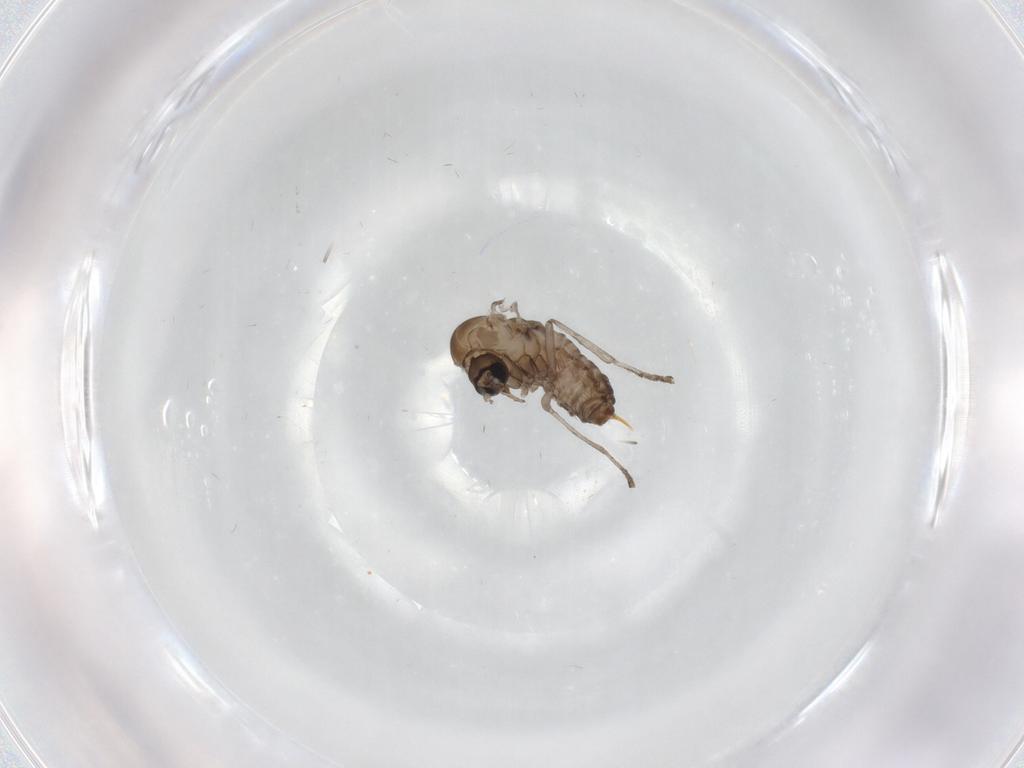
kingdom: Animalia
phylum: Arthropoda
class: Insecta
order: Diptera
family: Psychodidae
